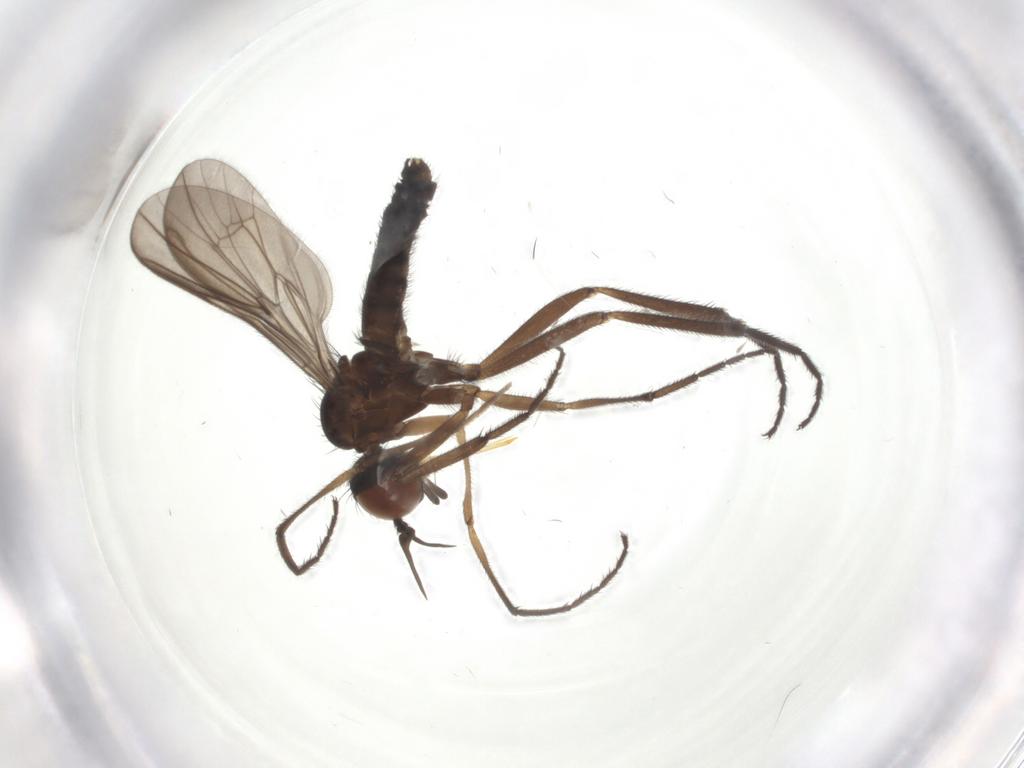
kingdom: Animalia
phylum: Arthropoda
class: Insecta
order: Diptera
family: Empididae
